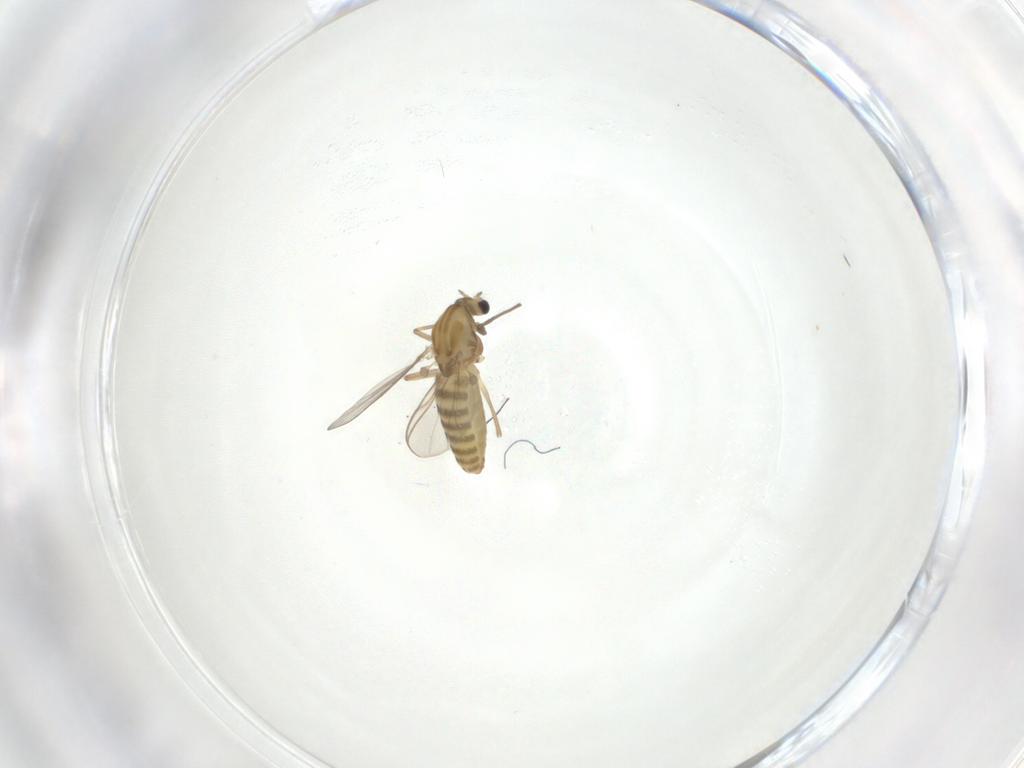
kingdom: Animalia
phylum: Arthropoda
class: Insecta
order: Diptera
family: Chironomidae
